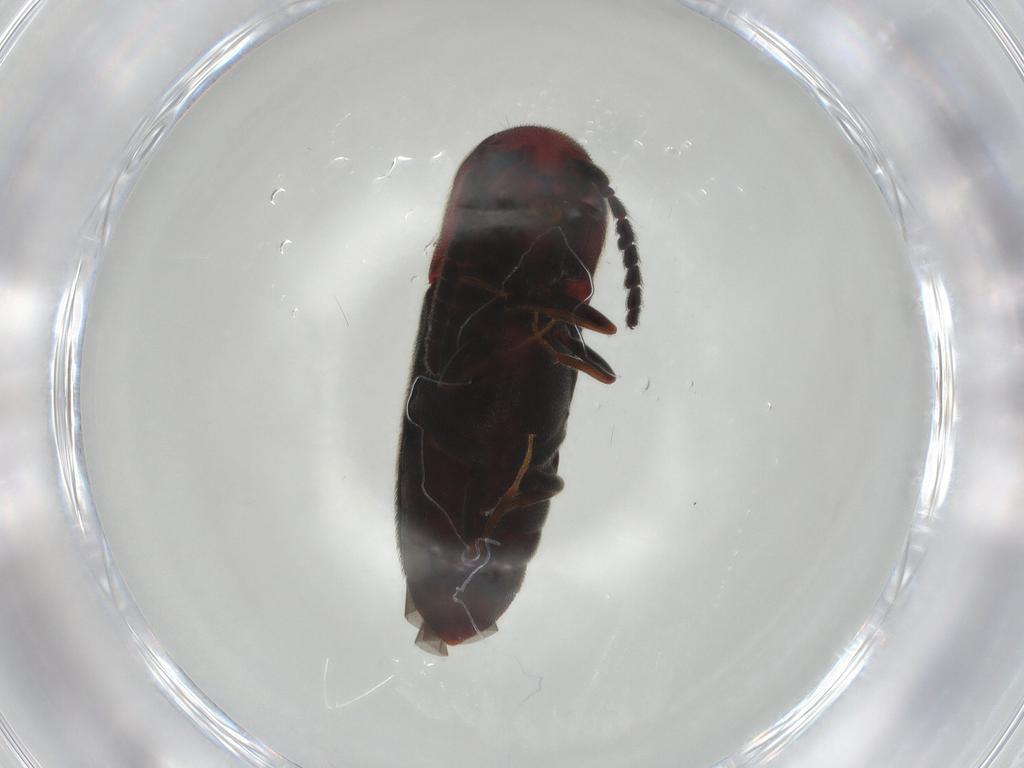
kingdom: Animalia
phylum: Arthropoda
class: Insecta
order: Coleoptera
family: Eucnemidae
